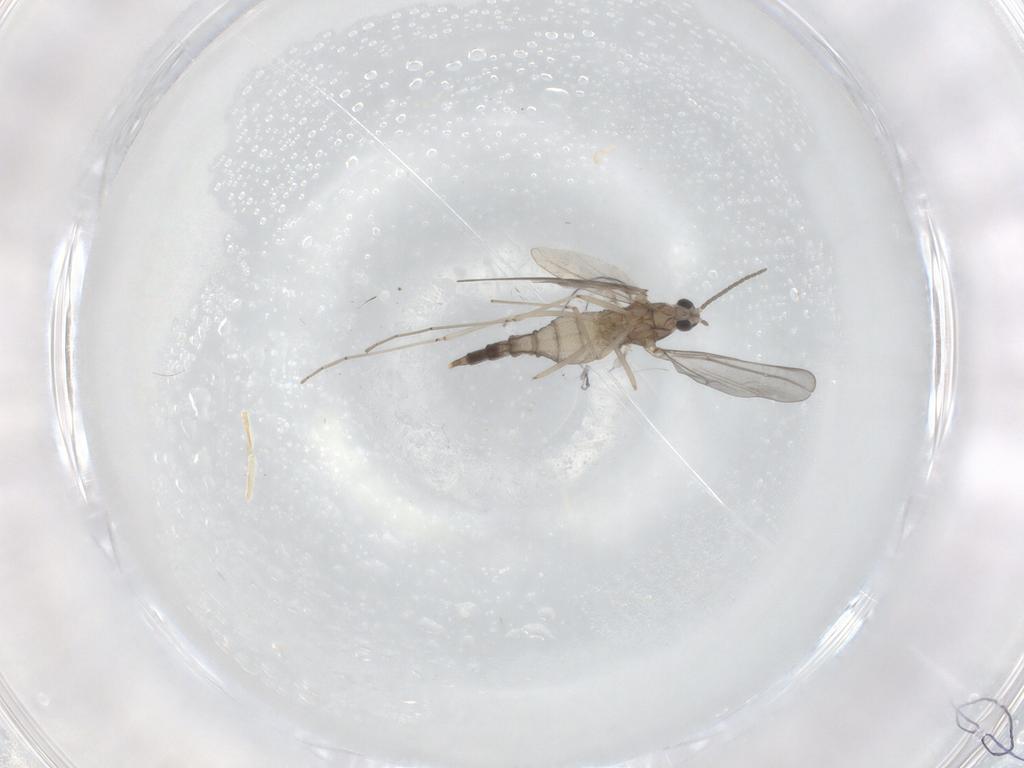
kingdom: Animalia
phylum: Arthropoda
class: Insecta
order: Diptera
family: Cecidomyiidae
